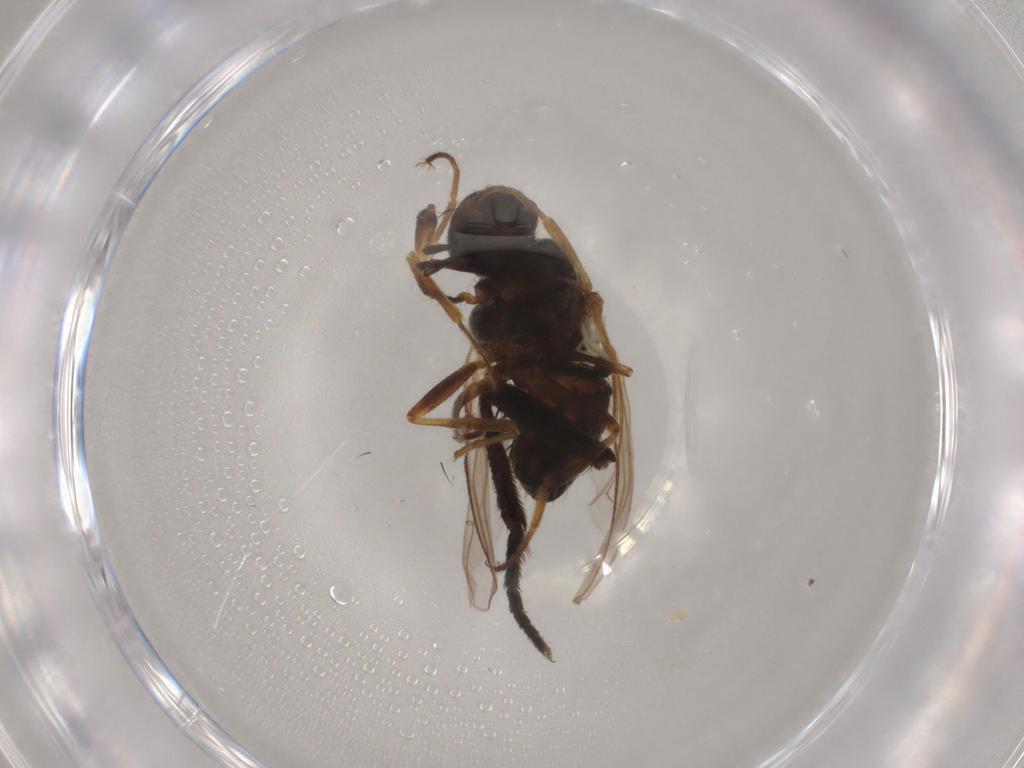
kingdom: Animalia
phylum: Arthropoda
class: Insecta
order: Diptera
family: Muscidae
